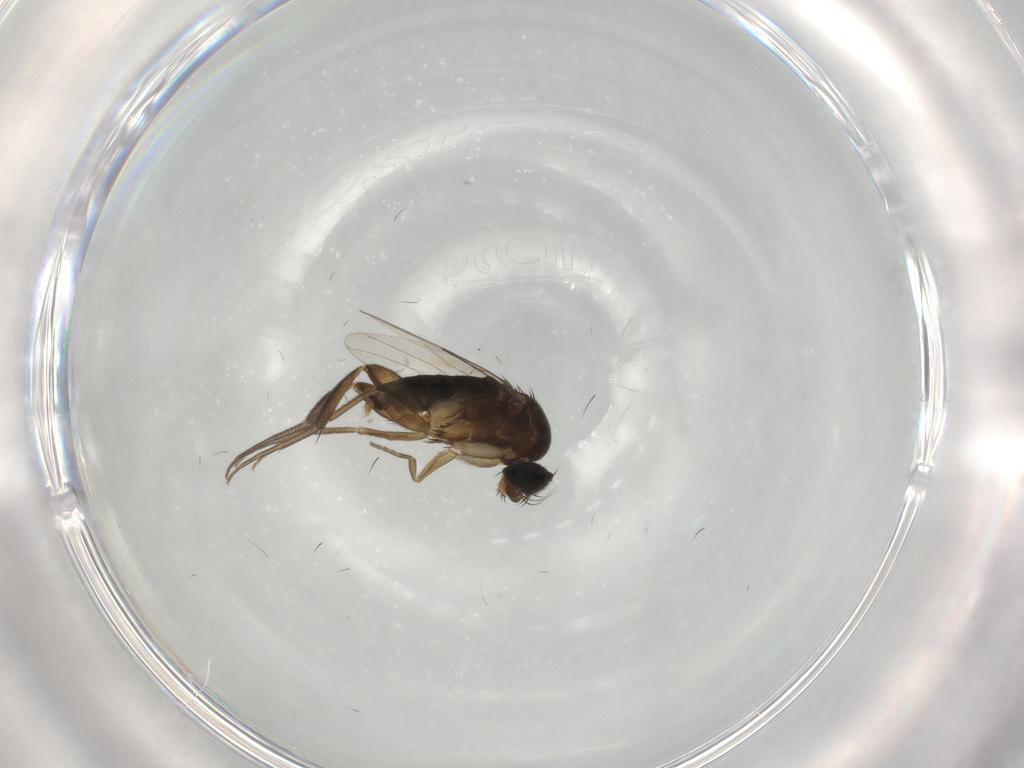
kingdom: Animalia
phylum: Arthropoda
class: Insecta
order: Diptera
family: Phoridae
